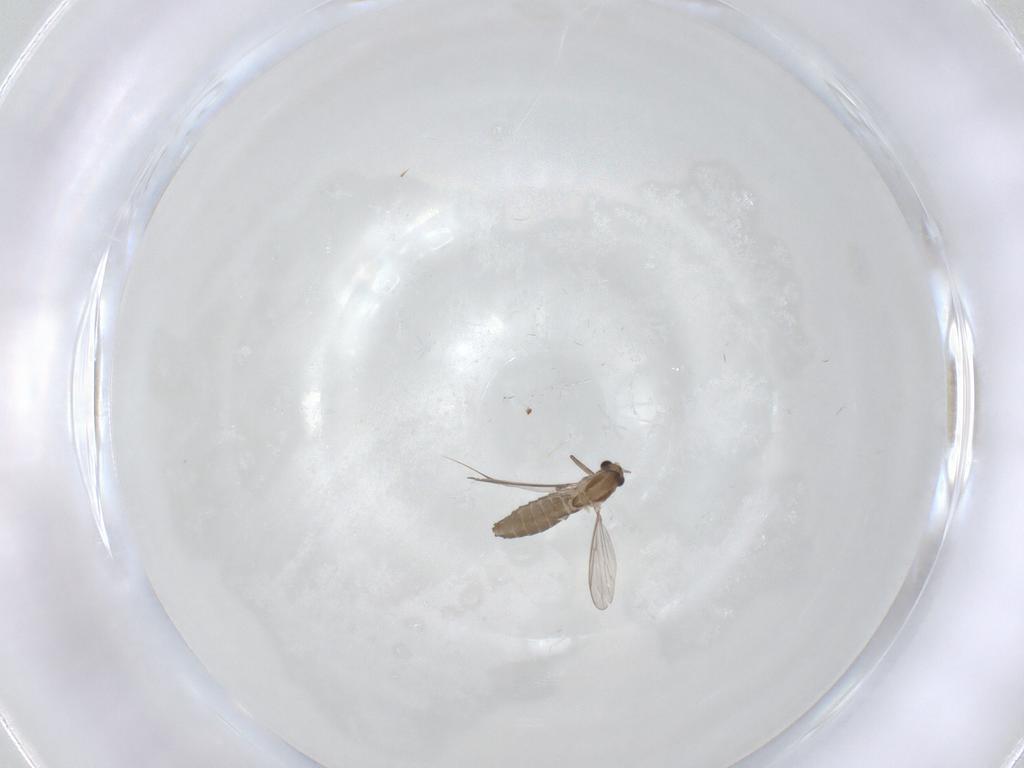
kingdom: Animalia
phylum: Arthropoda
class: Insecta
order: Diptera
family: Chironomidae
